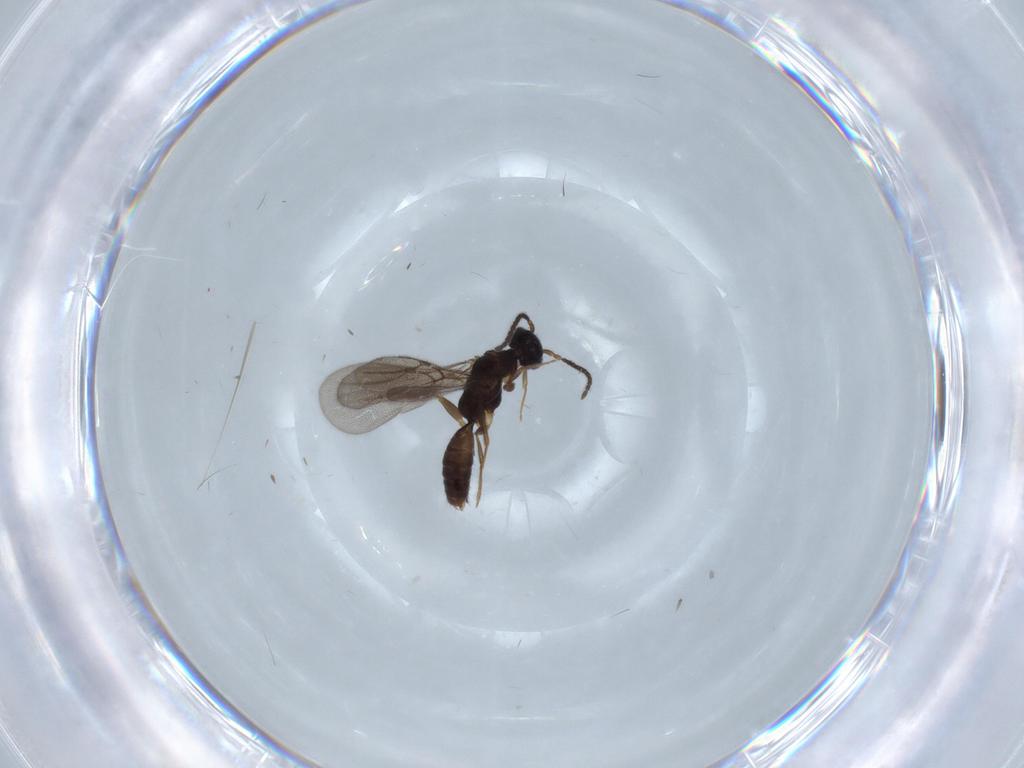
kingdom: Animalia
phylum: Arthropoda
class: Insecta
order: Hymenoptera
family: Bethylidae
